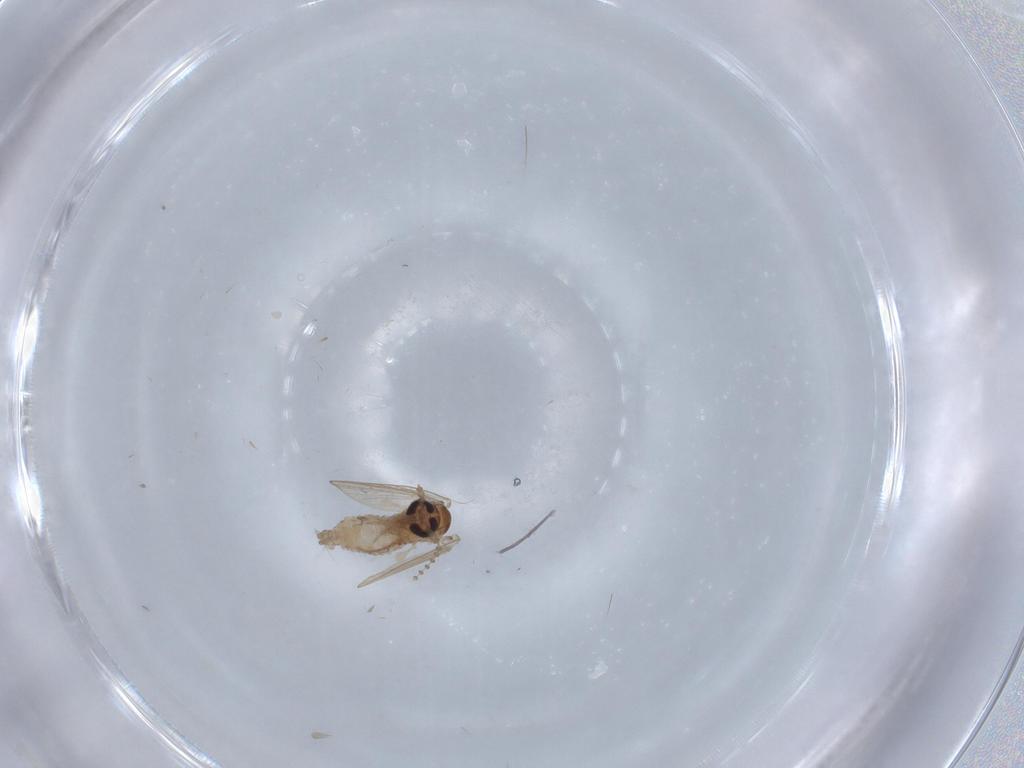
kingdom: Animalia
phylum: Arthropoda
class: Insecta
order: Diptera
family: Psychodidae
